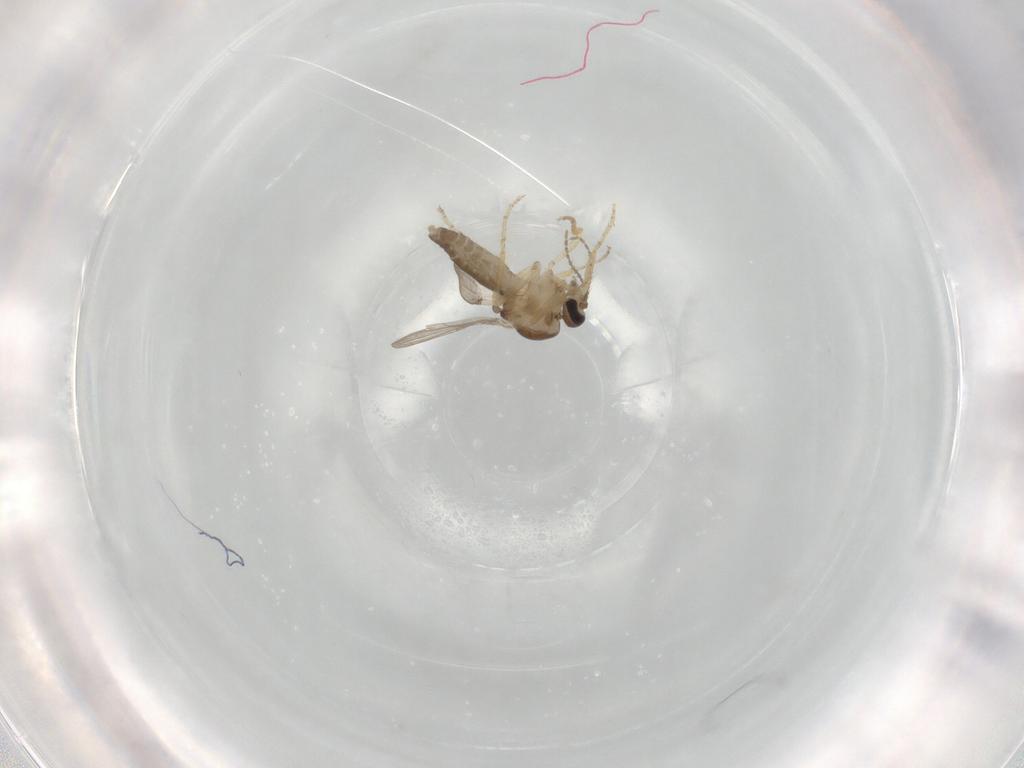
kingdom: Animalia
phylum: Arthropoda
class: Insecta
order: Diptera
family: Ceratopogonidae
